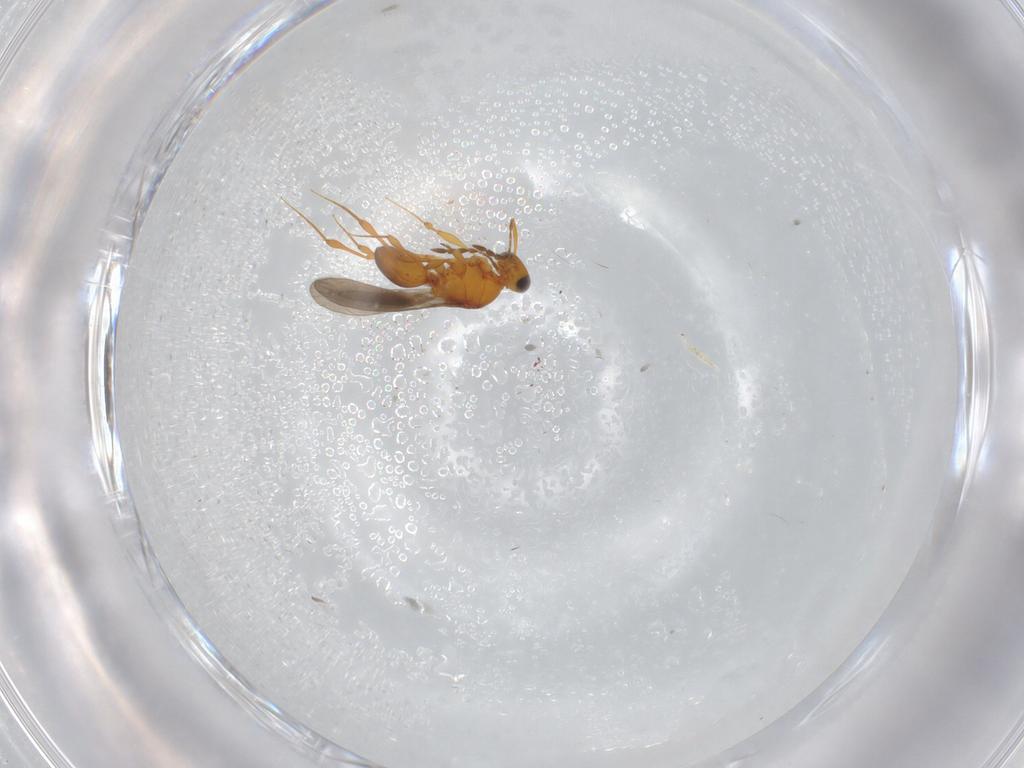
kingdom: Animalia
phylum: Arthropoda
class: Insecta
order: Hymenoptera
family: Platygastridae
